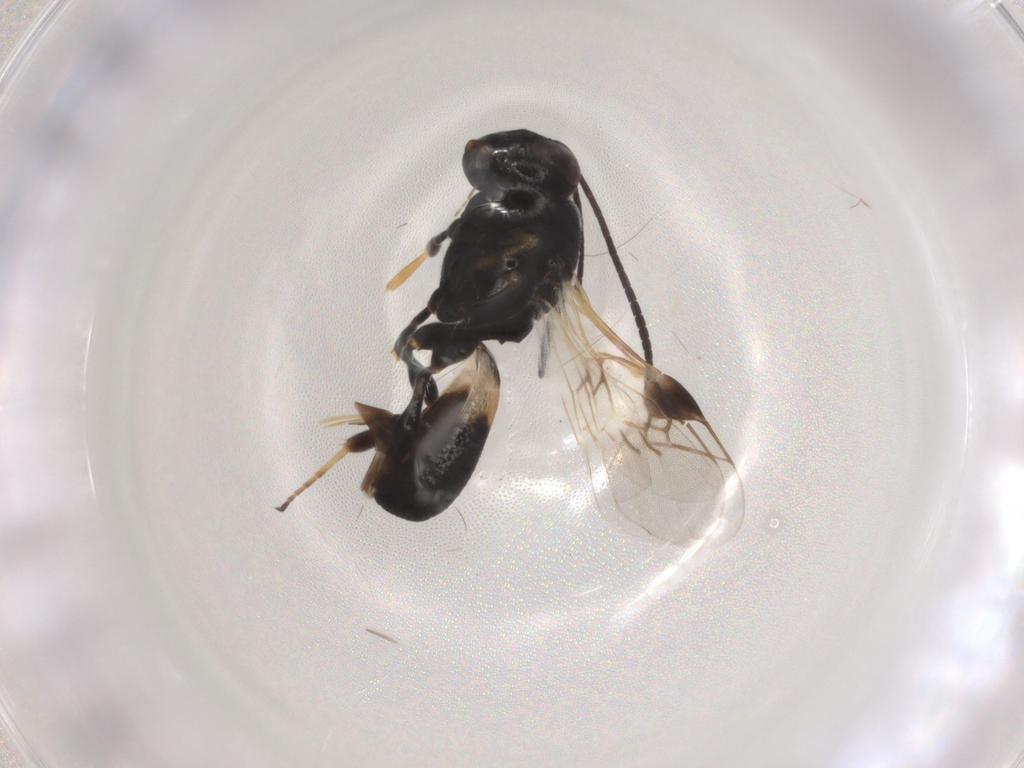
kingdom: Animalia
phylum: Arthropoda
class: Insecta
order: Hymenoptera
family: Braconidae
